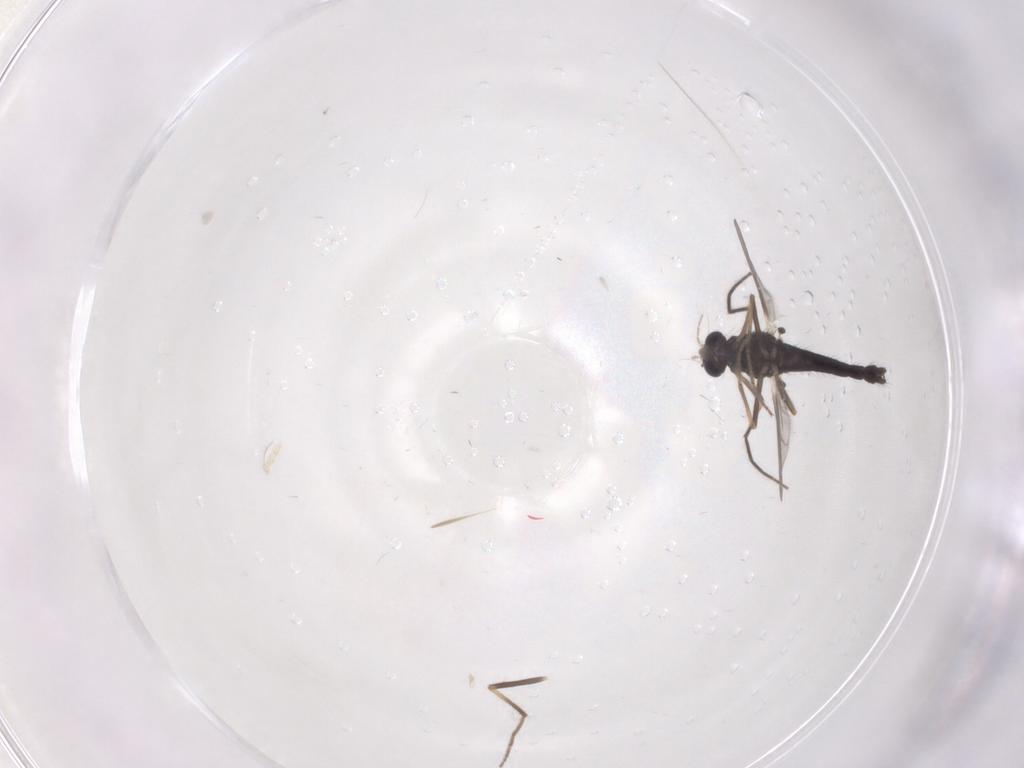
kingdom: Animalia
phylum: Arthropoda
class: Insecta
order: Diptera
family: Chironomidae
